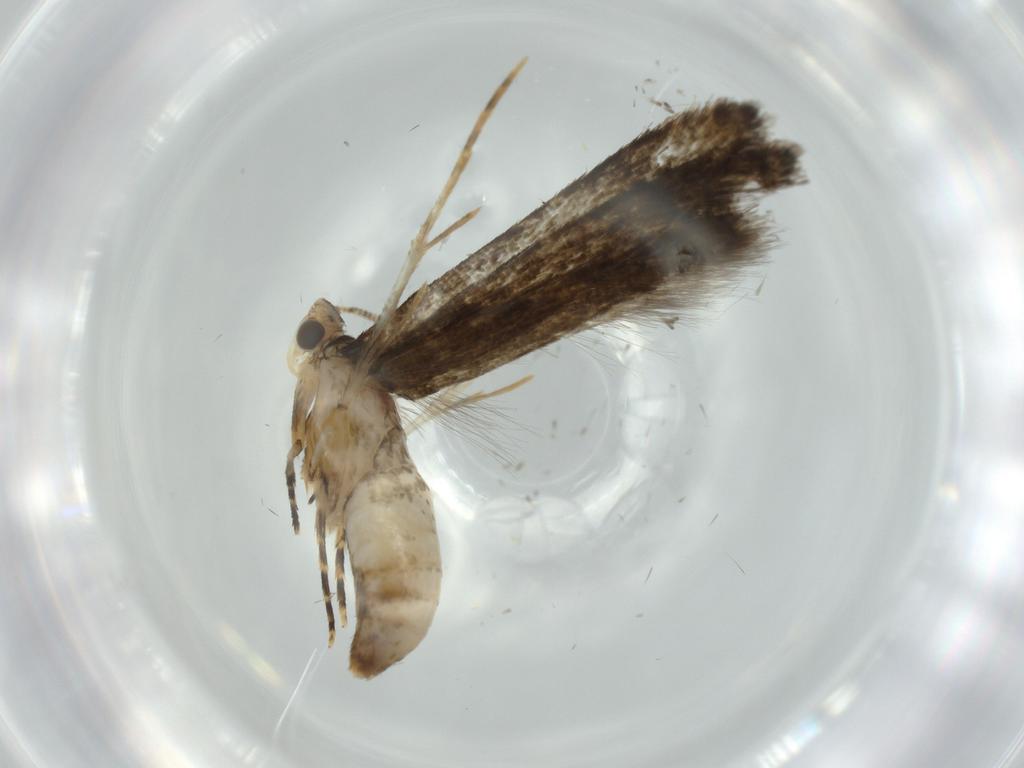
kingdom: Animalia
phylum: Arthropoda
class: Insecta
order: Lepidoptera
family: Meessiidae
